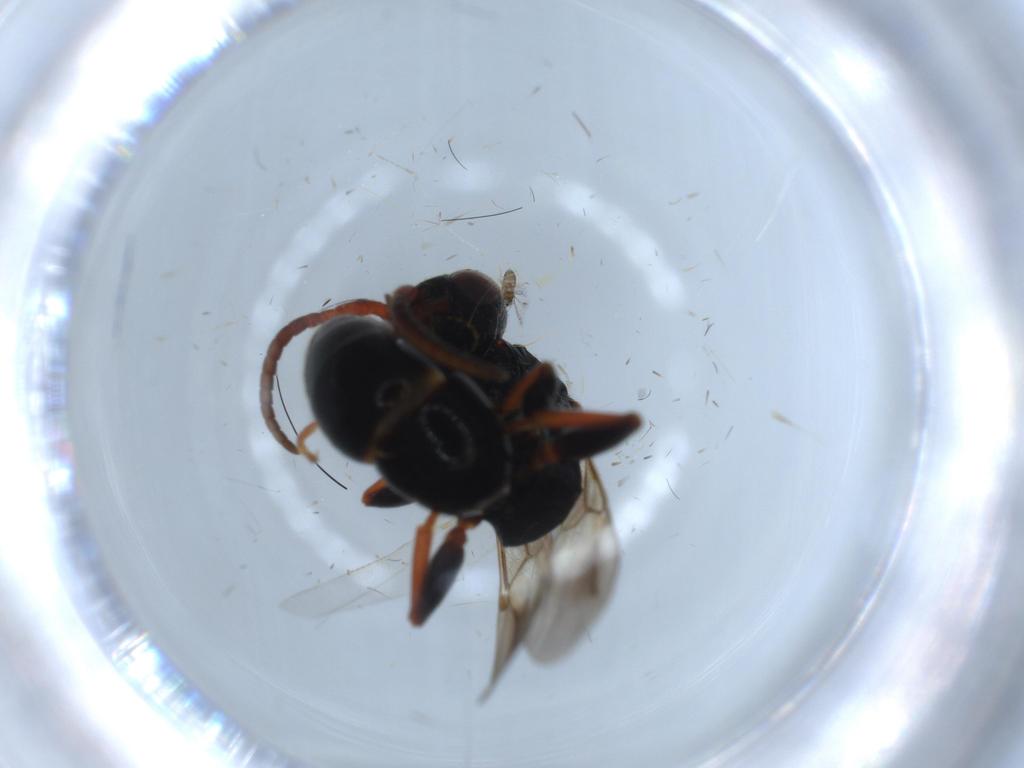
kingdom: Animalia
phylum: Arthropoda
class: Insecta
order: Hymenoptera
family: Bethylidae
